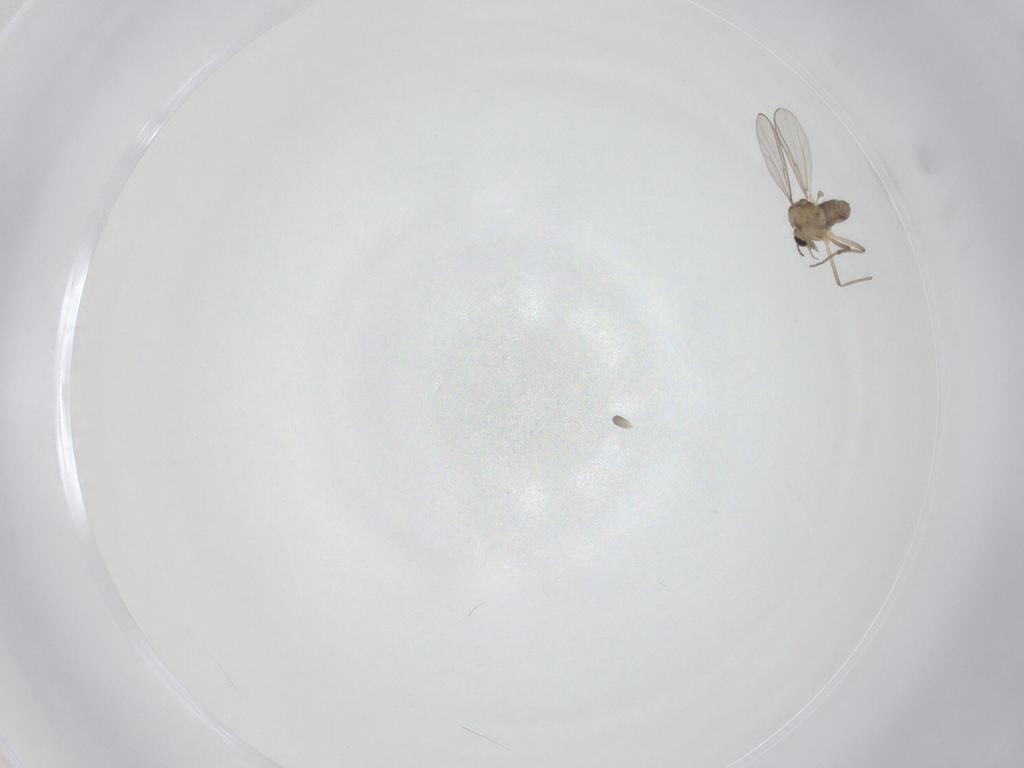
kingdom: Animalia
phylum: Arthropoda
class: Insecta
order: Diptera
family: Chironomidae
